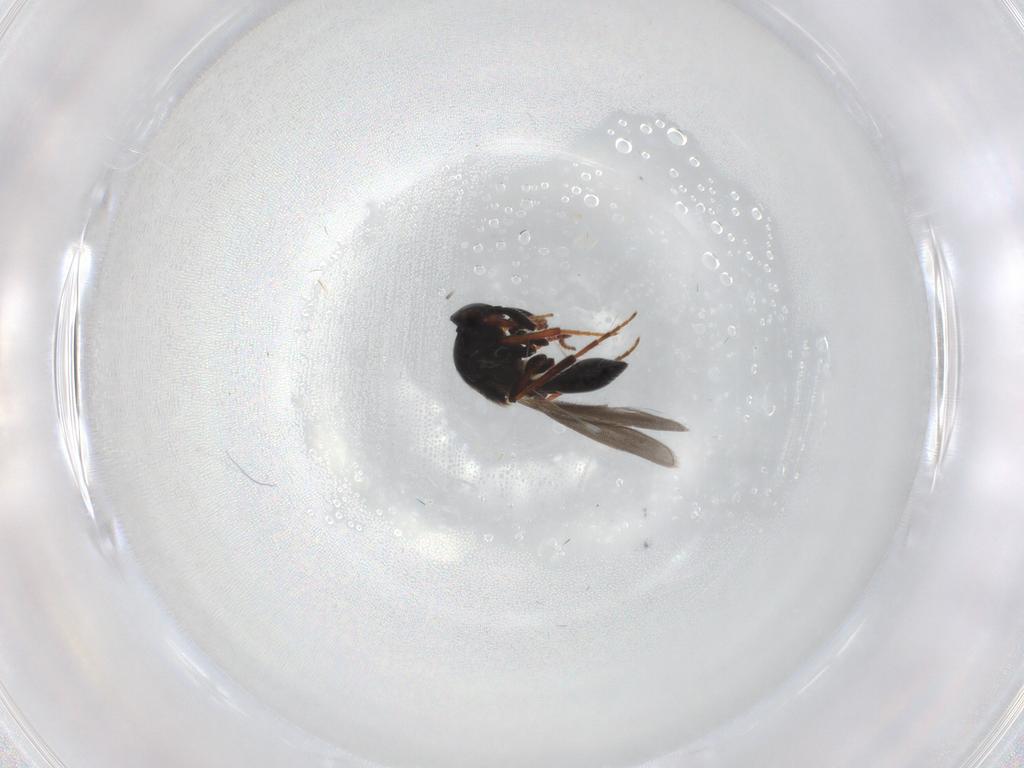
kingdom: Animalia
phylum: Arthropoda
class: Insecta
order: Hymenoptera
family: Platygastridae
